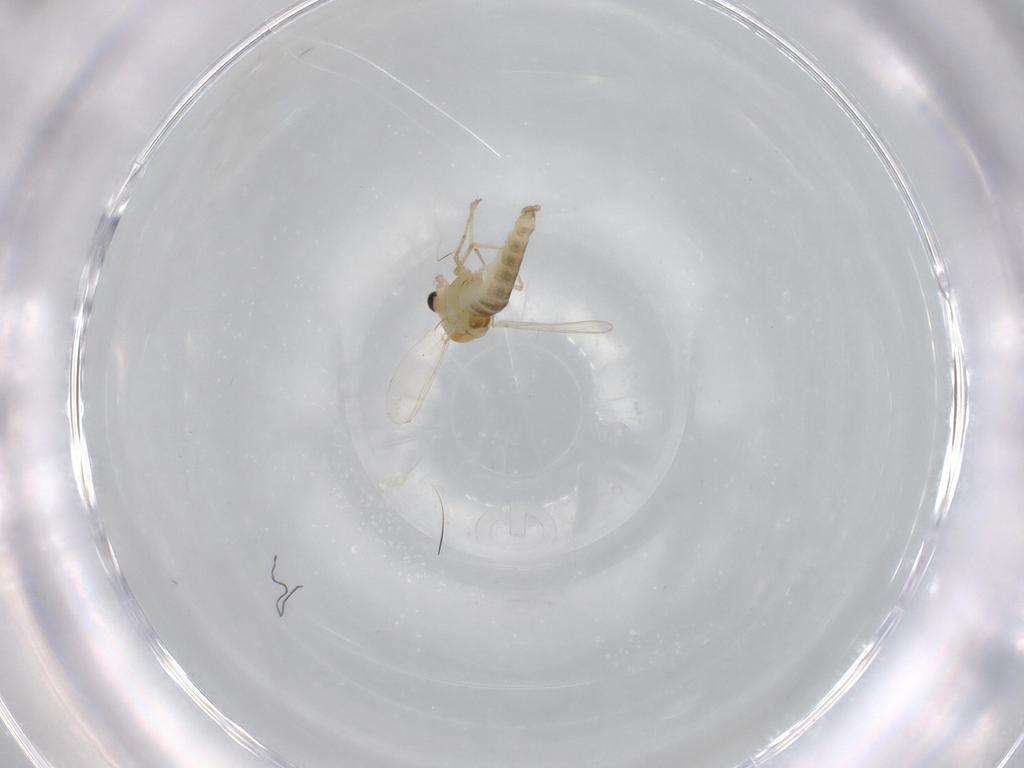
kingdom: Animalia
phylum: Arthropoda
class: Insecta
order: Diptera
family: Chironomidae
